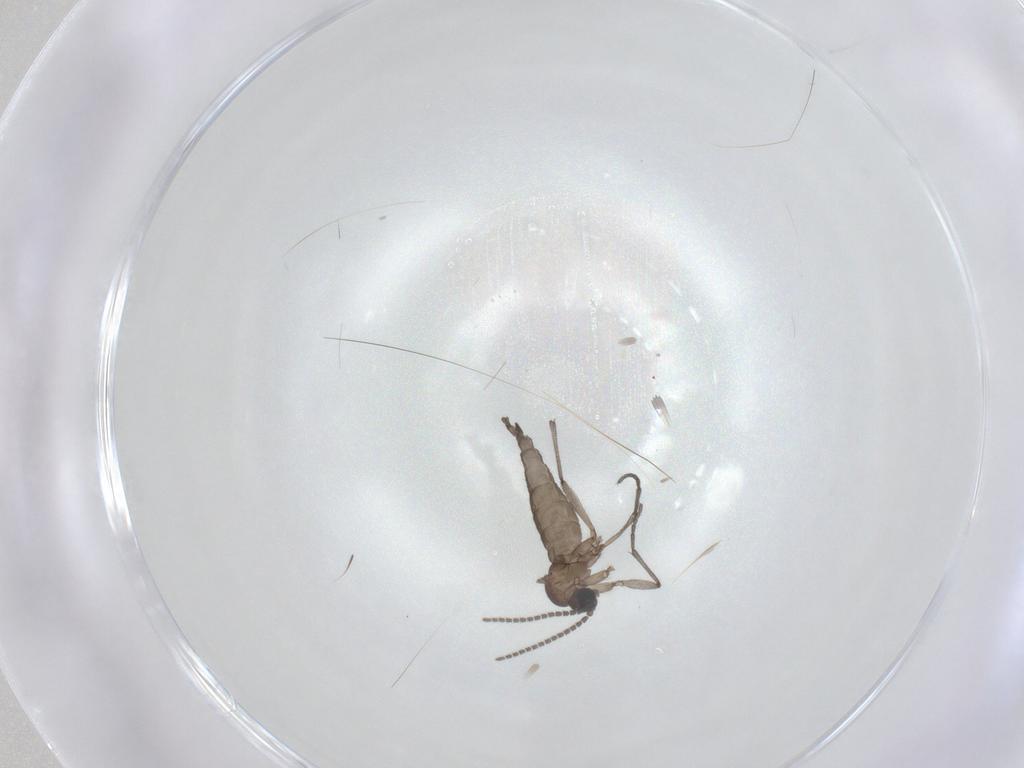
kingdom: Animalia
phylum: Arthropoda
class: Insecta
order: Diptera
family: Sciaridae
